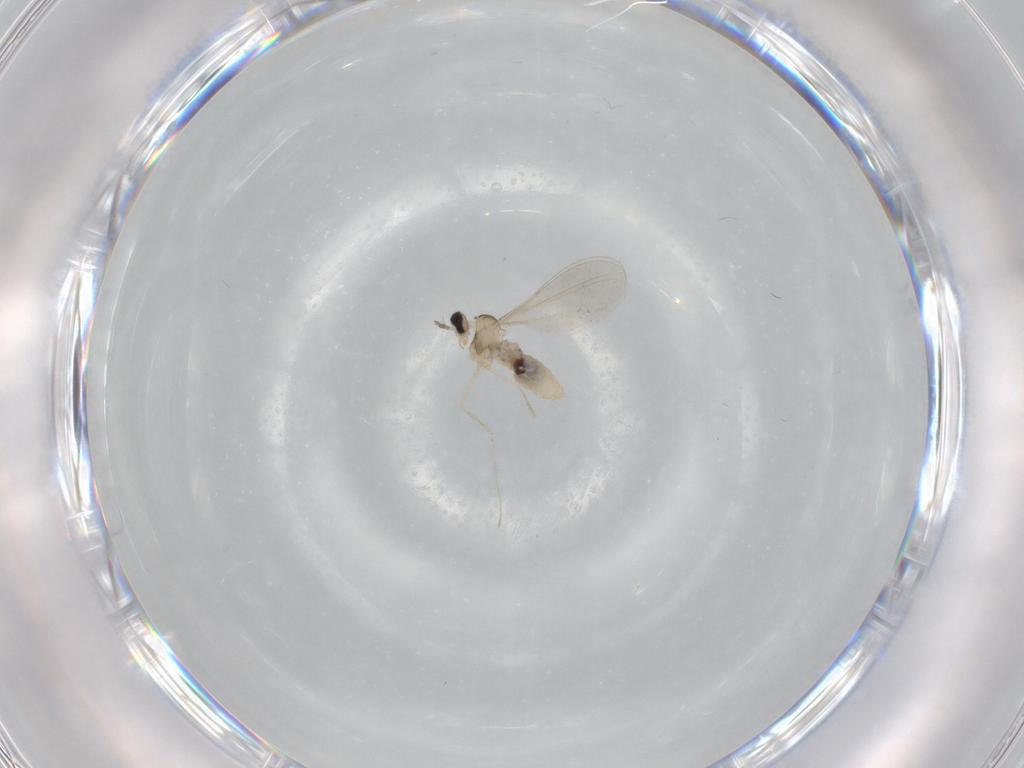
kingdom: Animalia
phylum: Arthropoda
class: Insecta
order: Diptera
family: Cecidomyiidae
